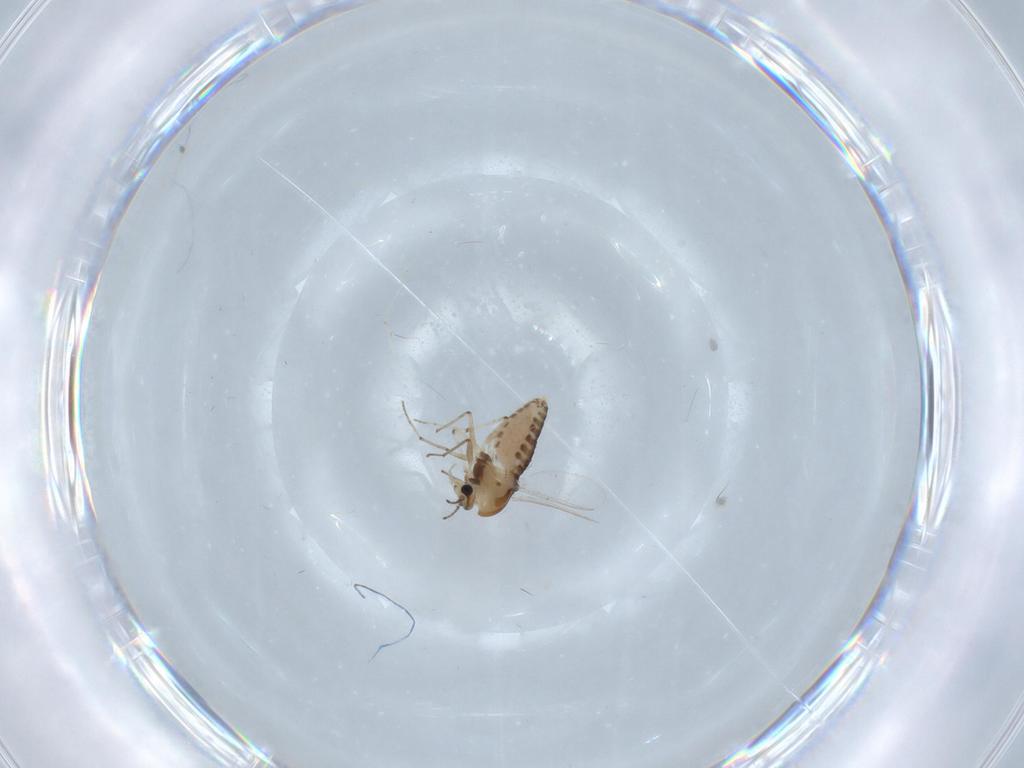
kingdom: Animalia
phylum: Arthropoda
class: Insecta
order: Diptera
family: Chironomidae
